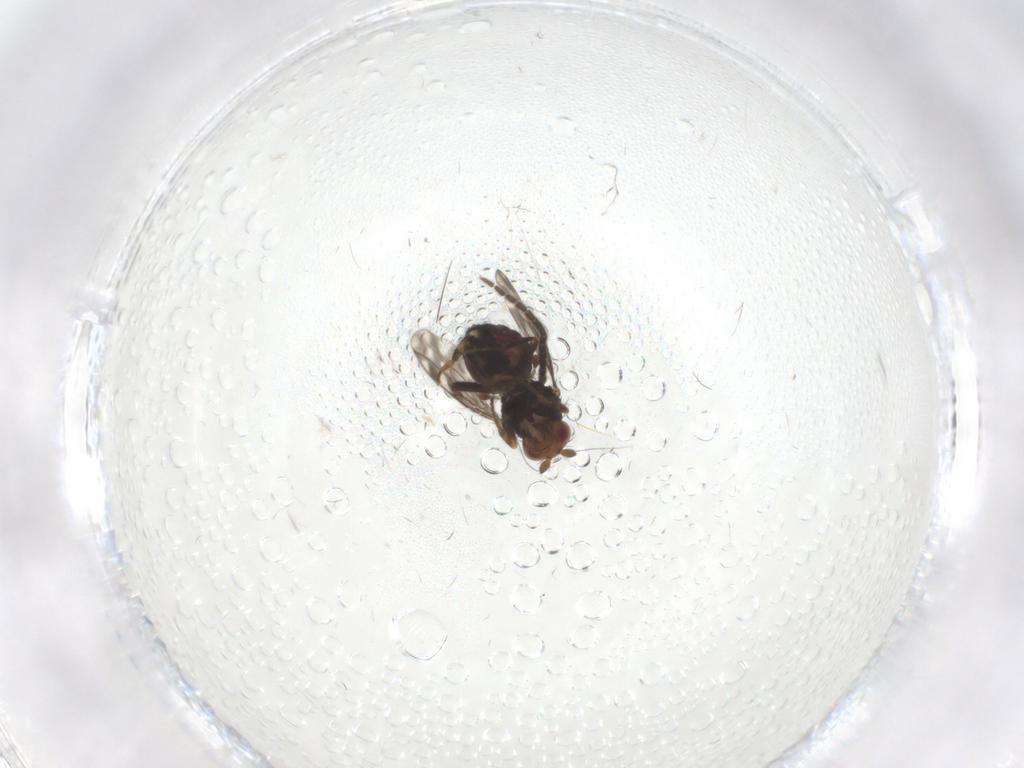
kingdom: Animalia
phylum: Arthropoda
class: Insecta
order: Diptera
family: Sphaeroceridae
